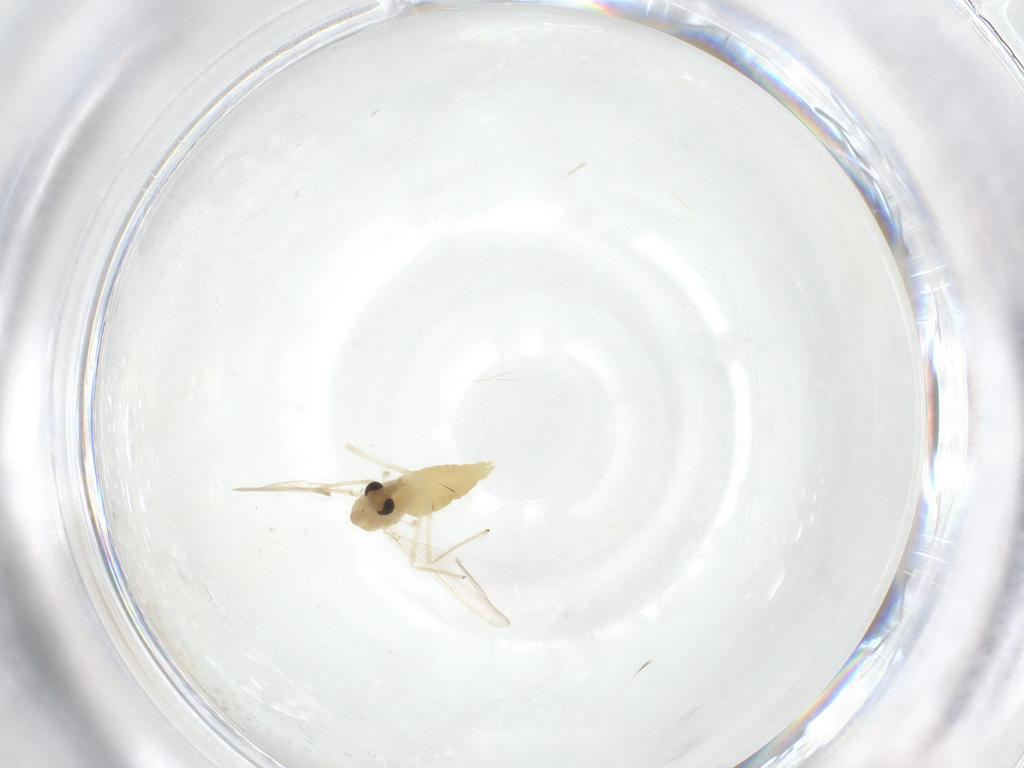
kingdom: Animalia
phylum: Arthropoda
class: Insecta
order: Diptera
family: Chironomidae
